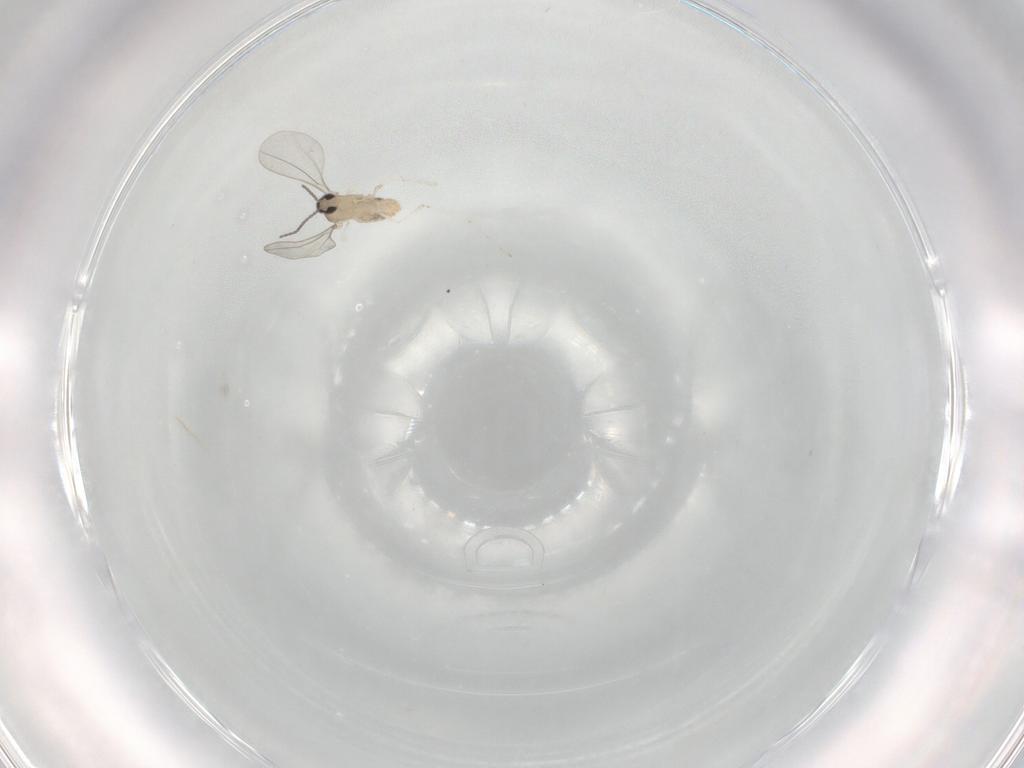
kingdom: Animalia
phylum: Arthropoda
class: Insecta
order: Diptera
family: Cecidomyiidae
